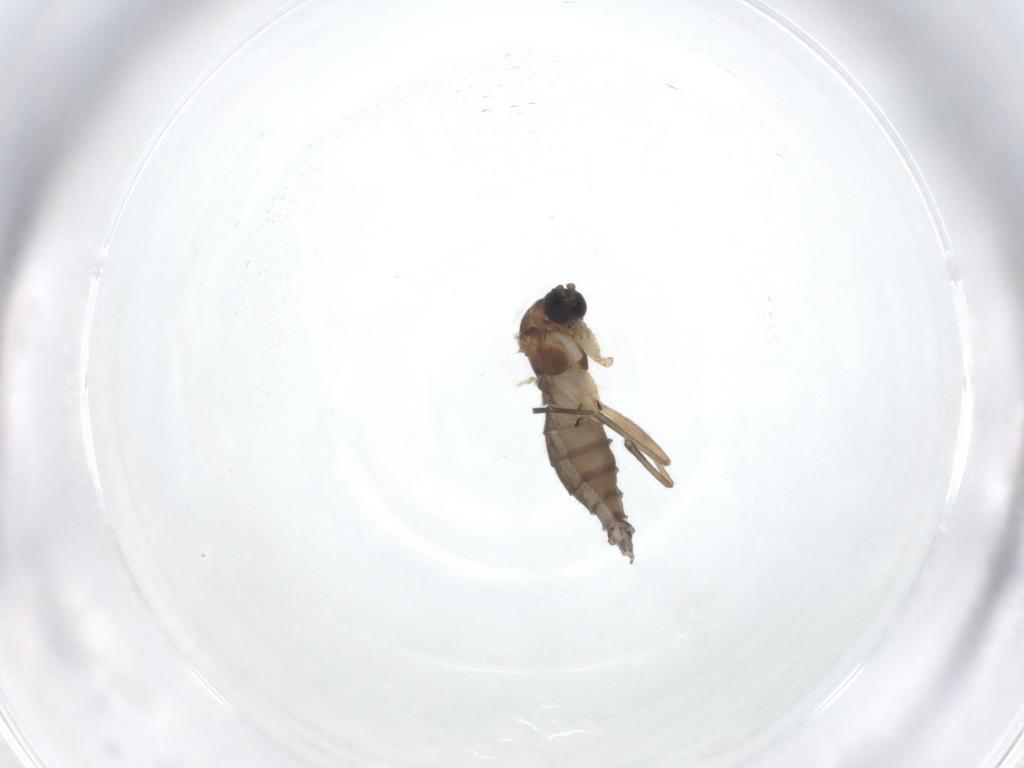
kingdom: Animalia
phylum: Arthropoda
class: Insecta
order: Diptera
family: Sciaridae
